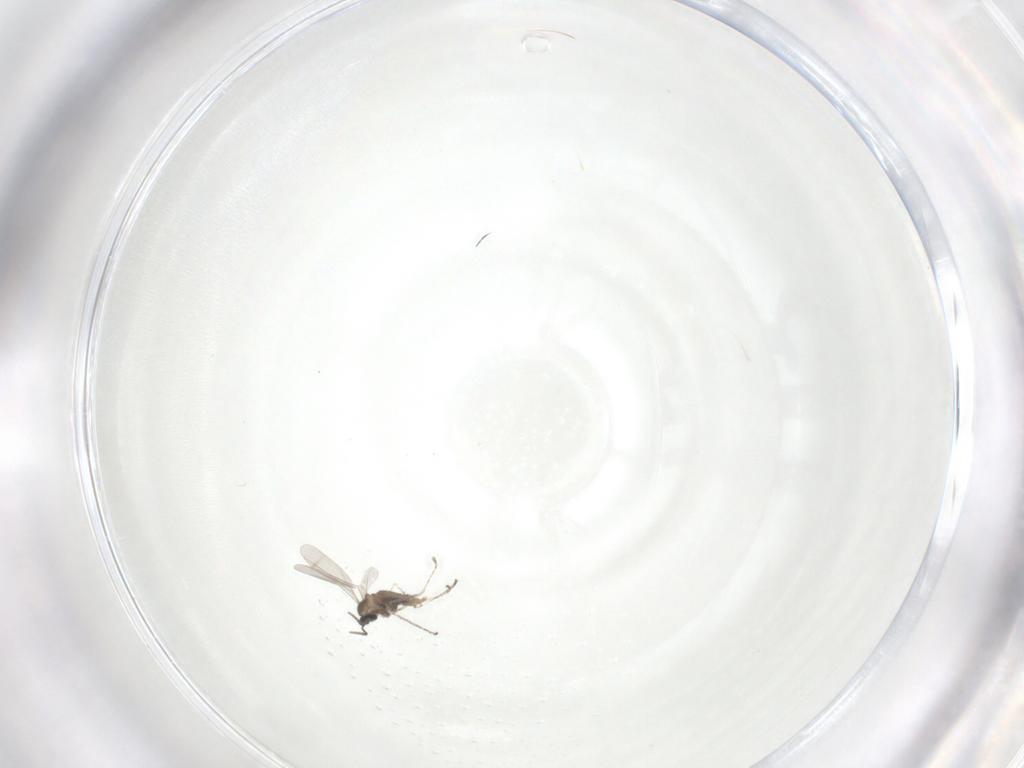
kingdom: Animalia
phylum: Arthropoda
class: Insecta
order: Diptera
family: Cecidomyiidae
